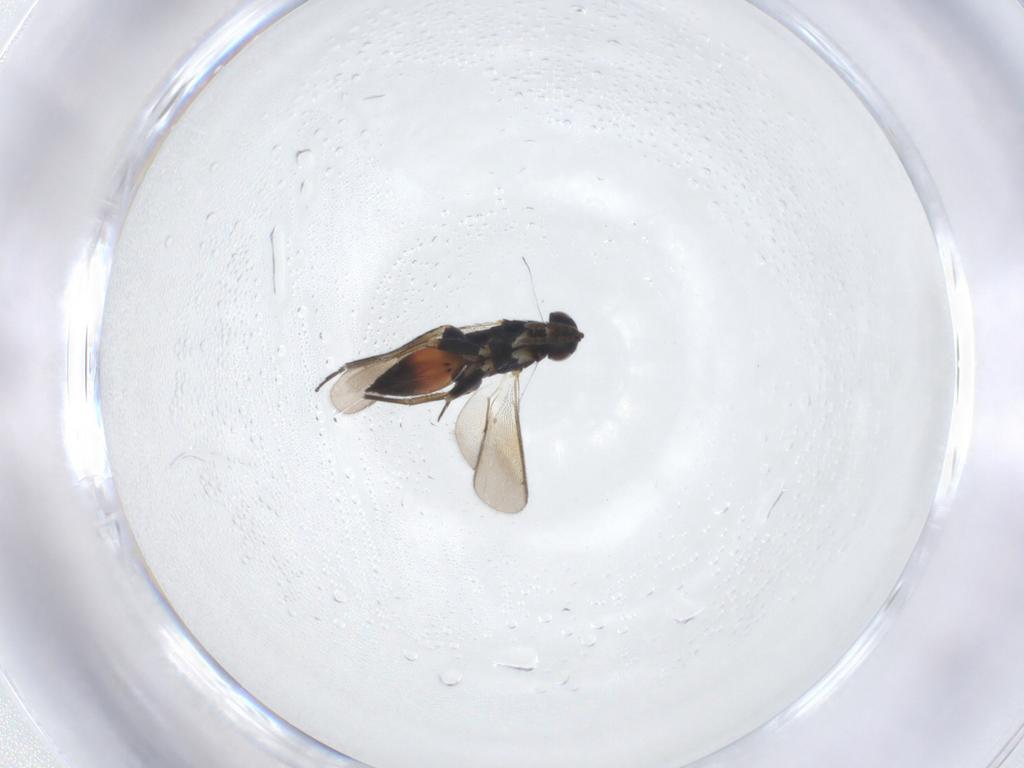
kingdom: Animalia
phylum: Arthropoda
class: Insecta
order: Hymenoptera
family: Eulophidae
